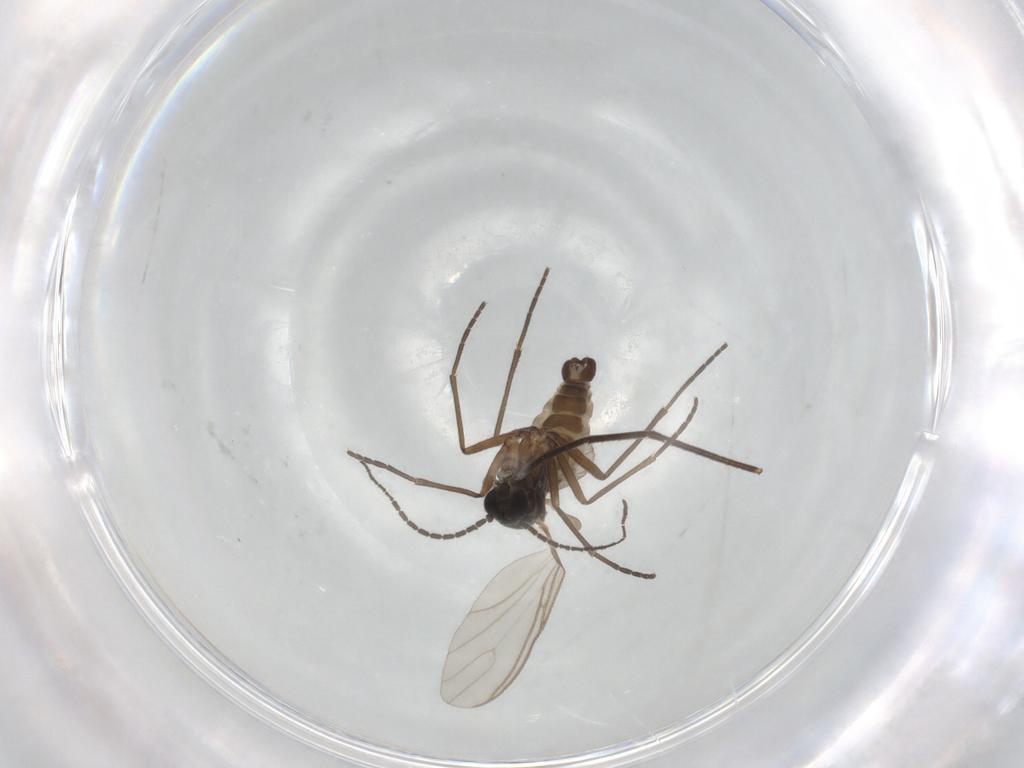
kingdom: Animalia
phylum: Arthropoda
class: Insecta
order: Diptera
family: Sciaridae
